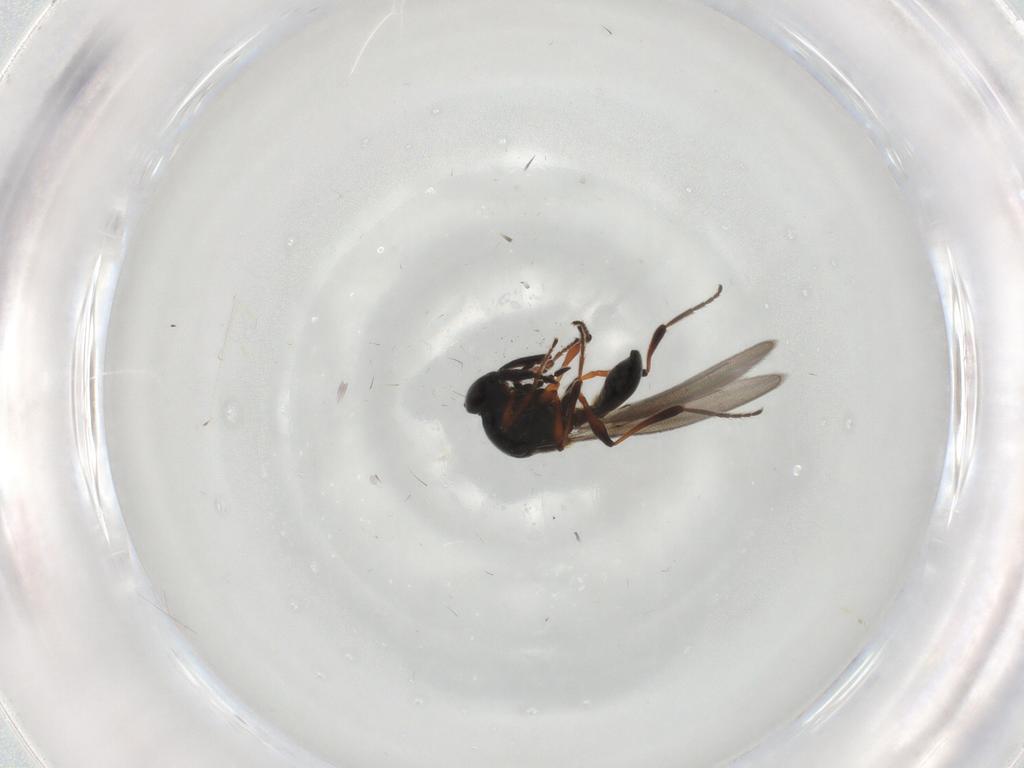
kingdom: Animalia
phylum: Arthropoda
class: Insecta
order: Hymenoptera
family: Platygastridae
